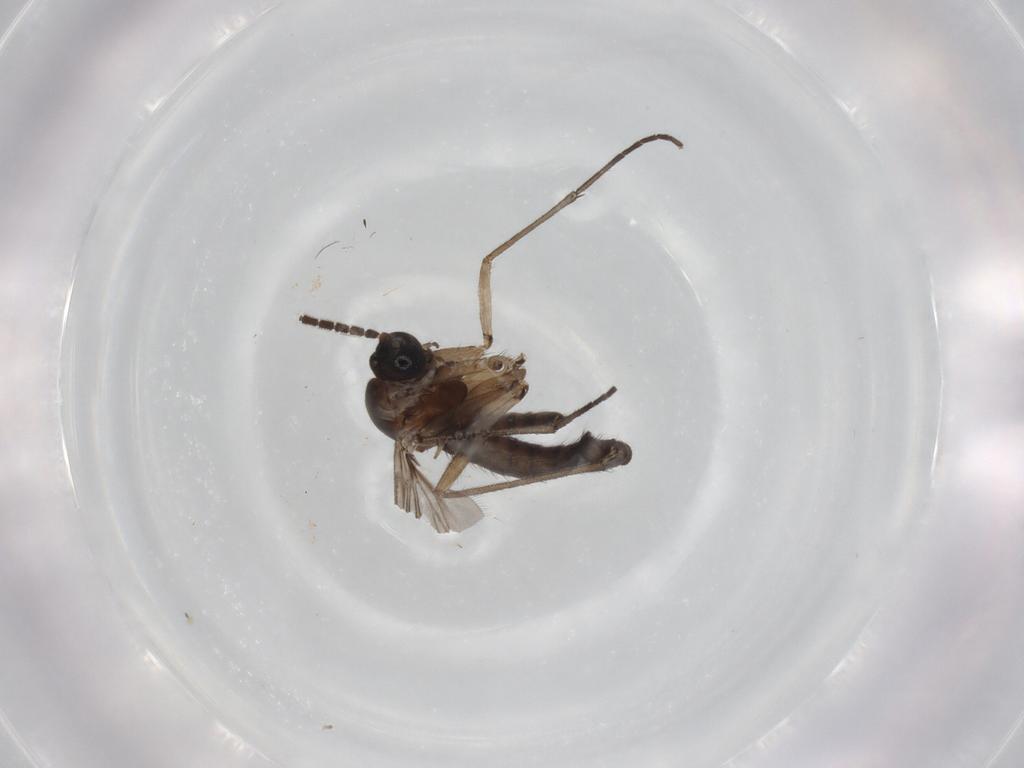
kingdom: Animalia
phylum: Arthropoda
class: Insecta
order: Diptera
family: Sciaridae
